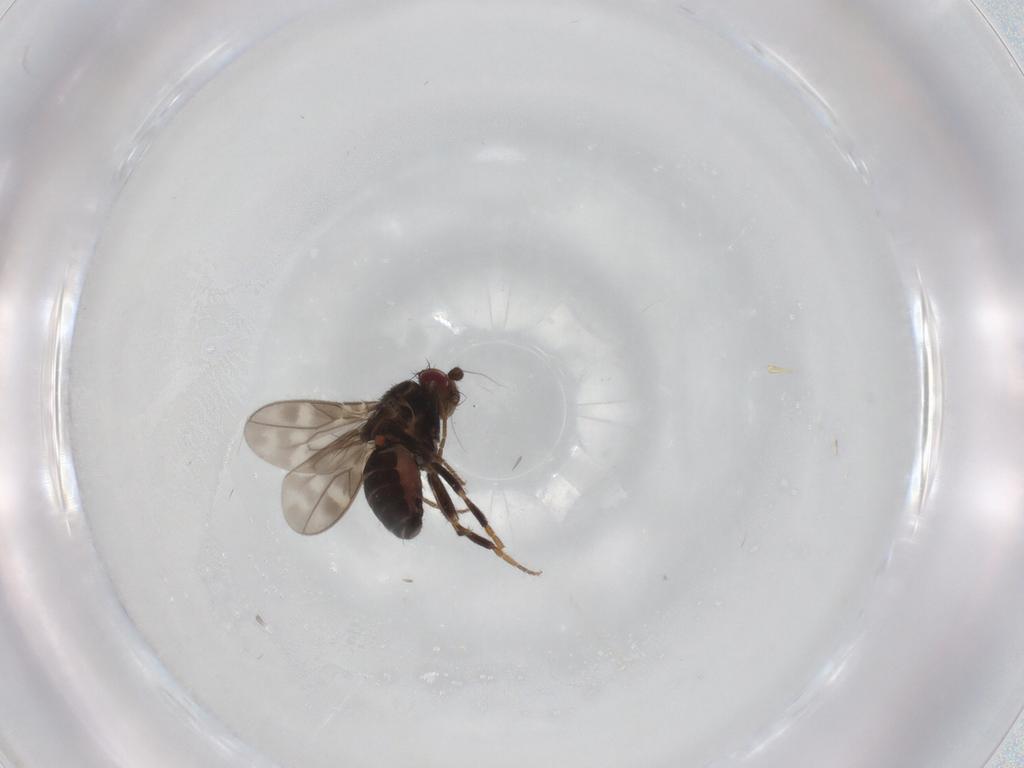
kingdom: Animalia
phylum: Arthropoda
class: Insecta
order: Diptera
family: Sphaeroceridae
